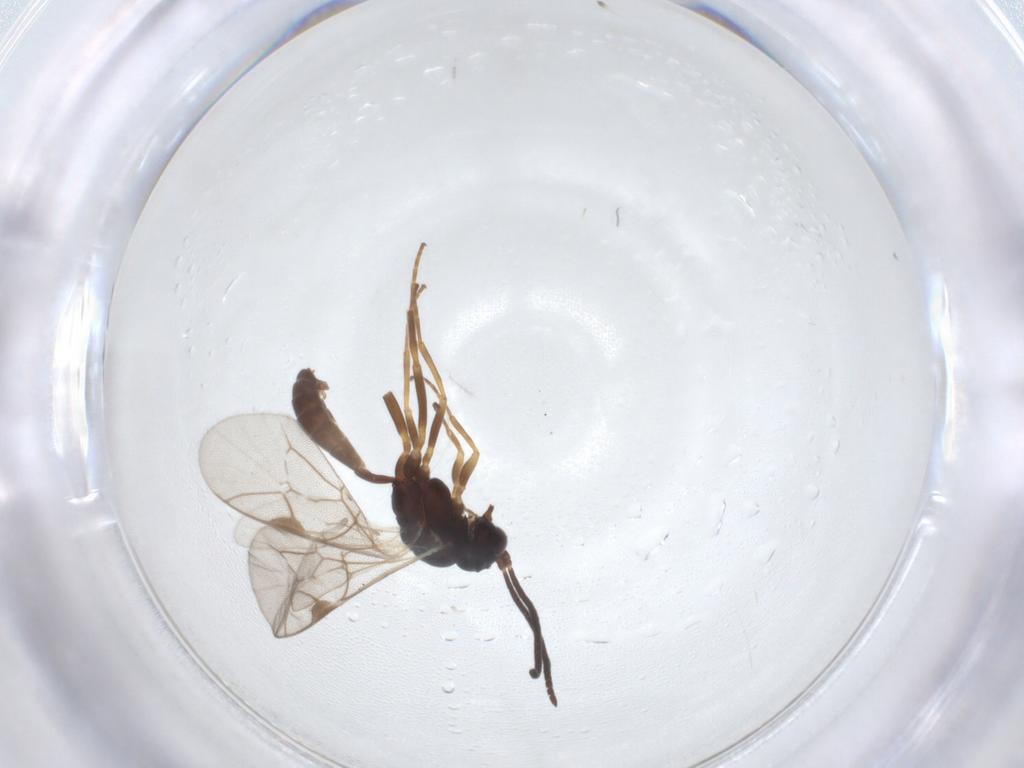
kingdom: Animalia
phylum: Arthropoda
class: Insecta
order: Hymenoptera
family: Ichneumonidae
